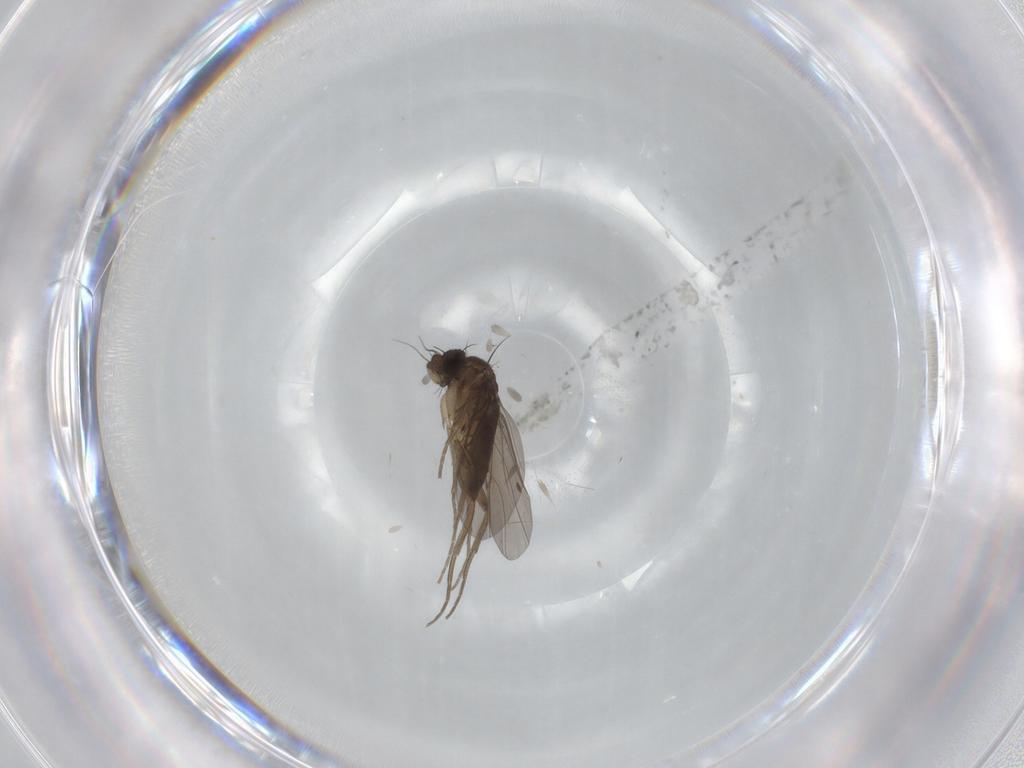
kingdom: Animalia
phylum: Arthropoda
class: Insecta
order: Diptera
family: Phoridae
